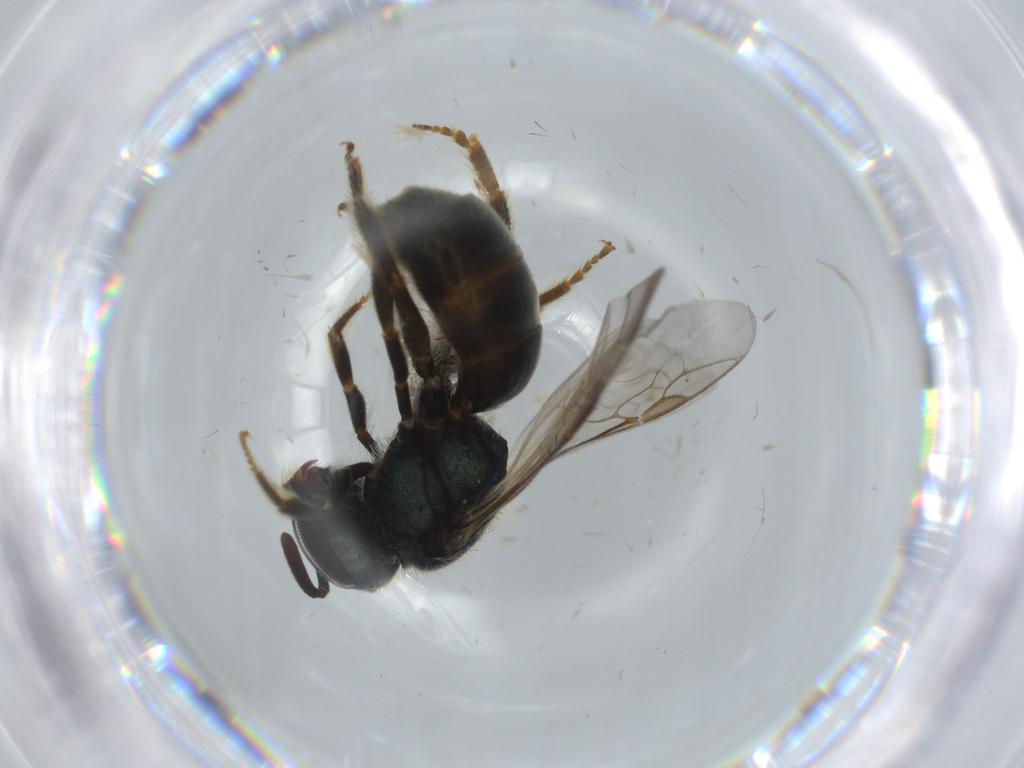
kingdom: Animalia
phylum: Arthropoda
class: Insecta
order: Hymenoptera
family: Halictidae
